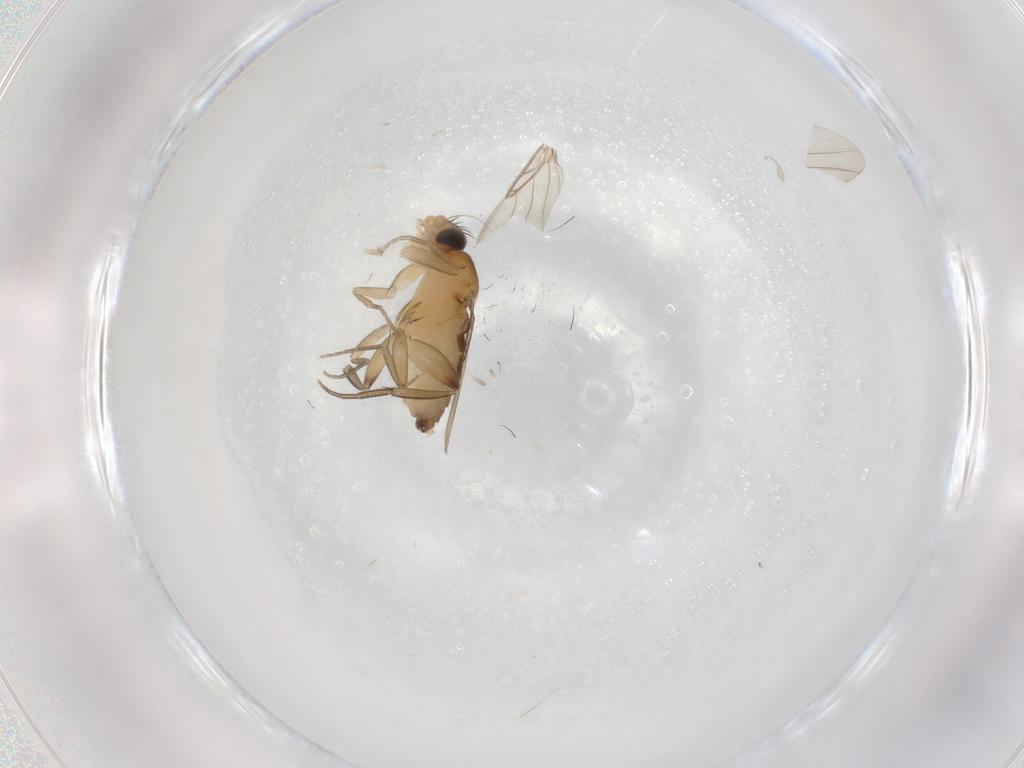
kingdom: Animalia
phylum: Arthropoda
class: Insecta
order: Diptera
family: Phoridae
